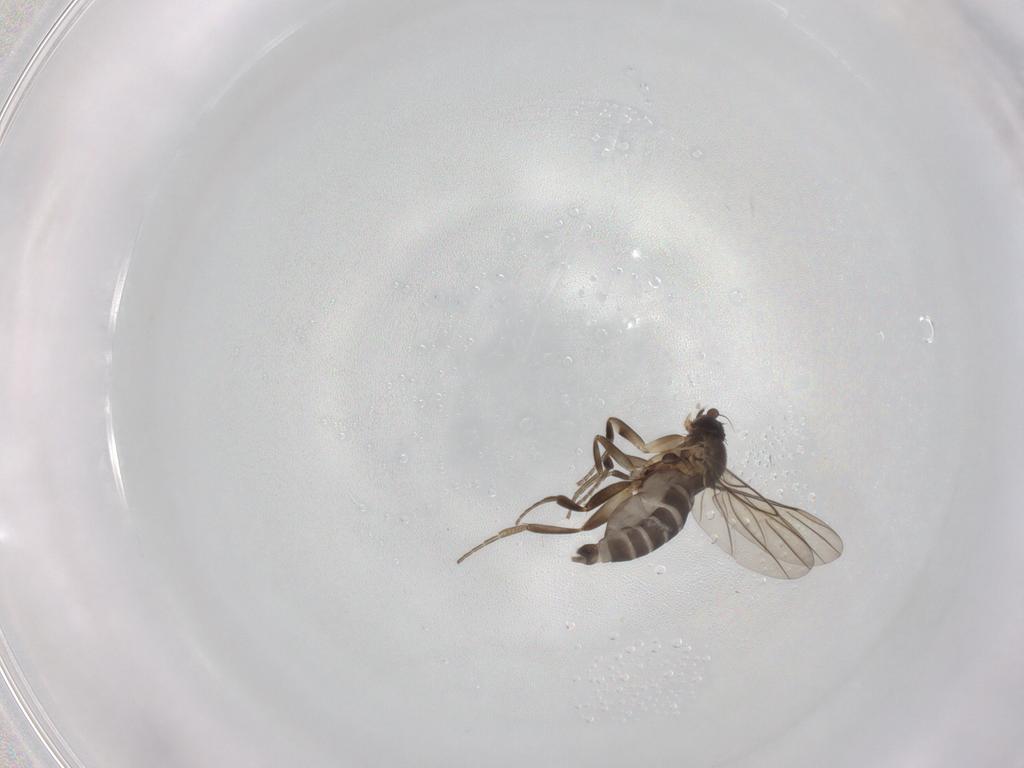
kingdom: Animalia
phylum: Arthropoda
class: Insecta
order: Diptera
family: Phoridae
